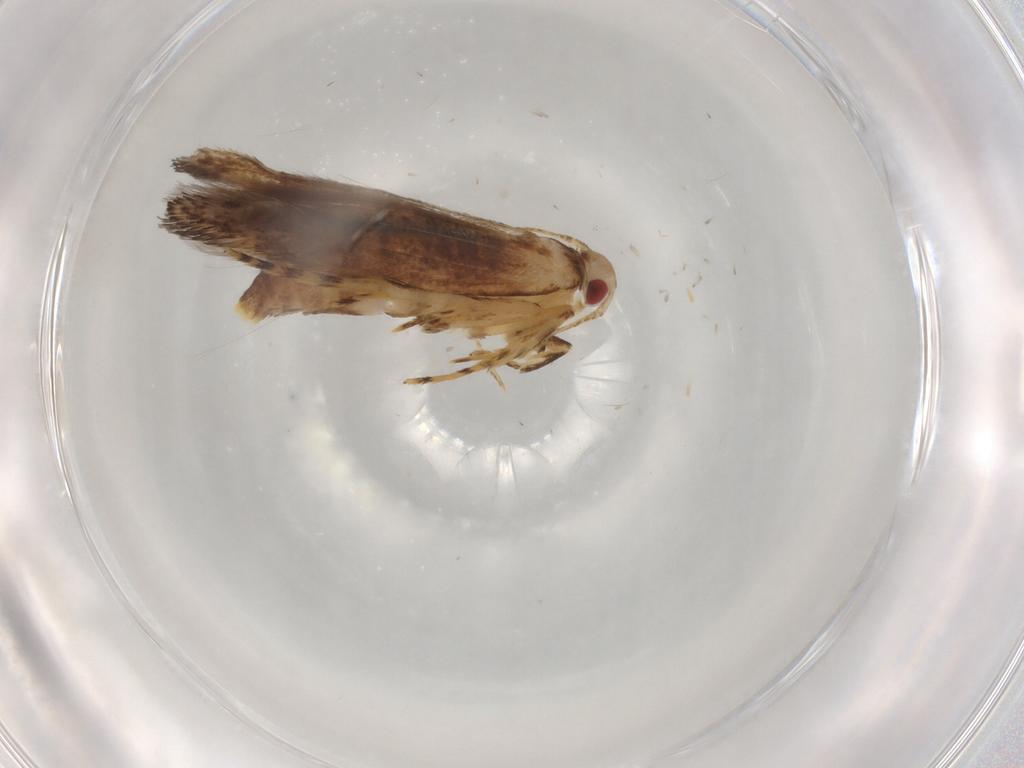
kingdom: Animalia
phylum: Arthropoda
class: Insecta
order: Lepidoptera
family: Cosmopterigidae
